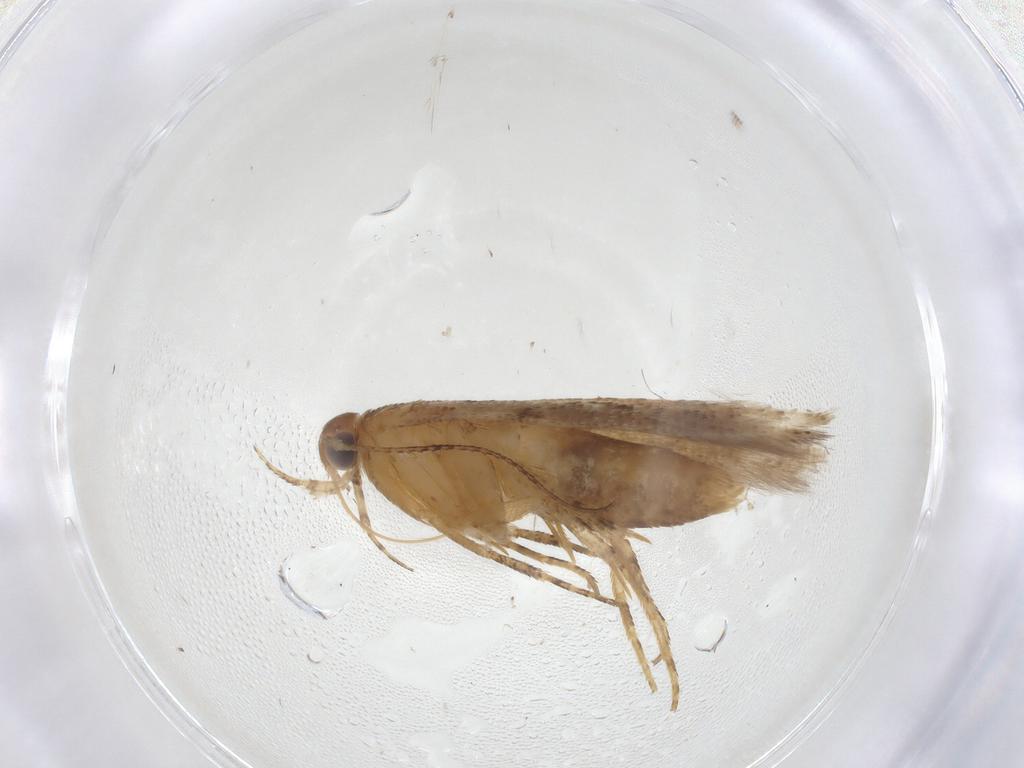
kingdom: Animalia
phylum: Arthropoda
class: Insecta
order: Lepidoptera
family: Gelechiidae
